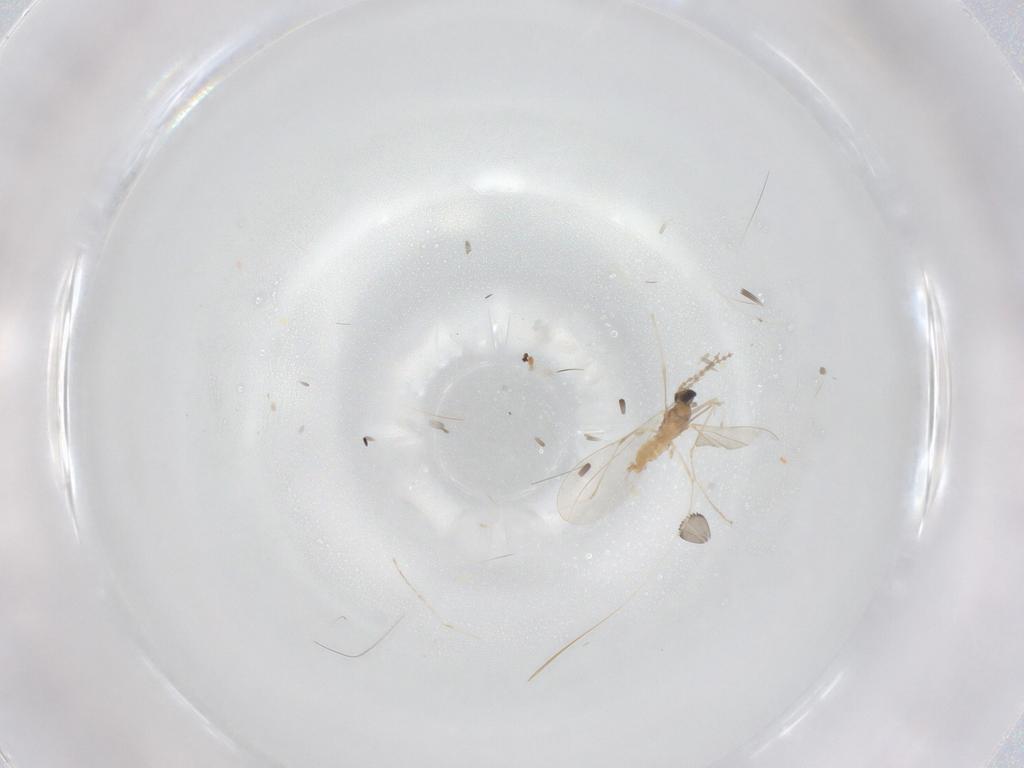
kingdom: Animalia
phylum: Arthropoda
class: Insecta
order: Diptera
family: Cecidomyiidae
